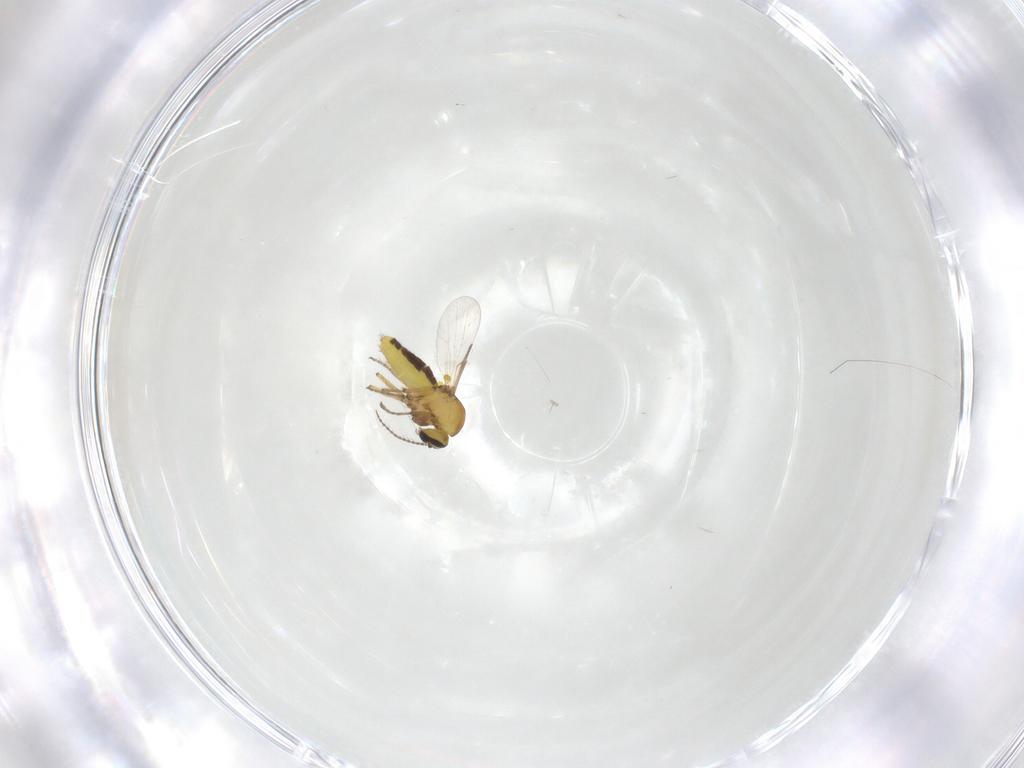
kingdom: Animalia
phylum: Arthropoda
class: Insecta
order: Diptera
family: Ceratopogonidae
